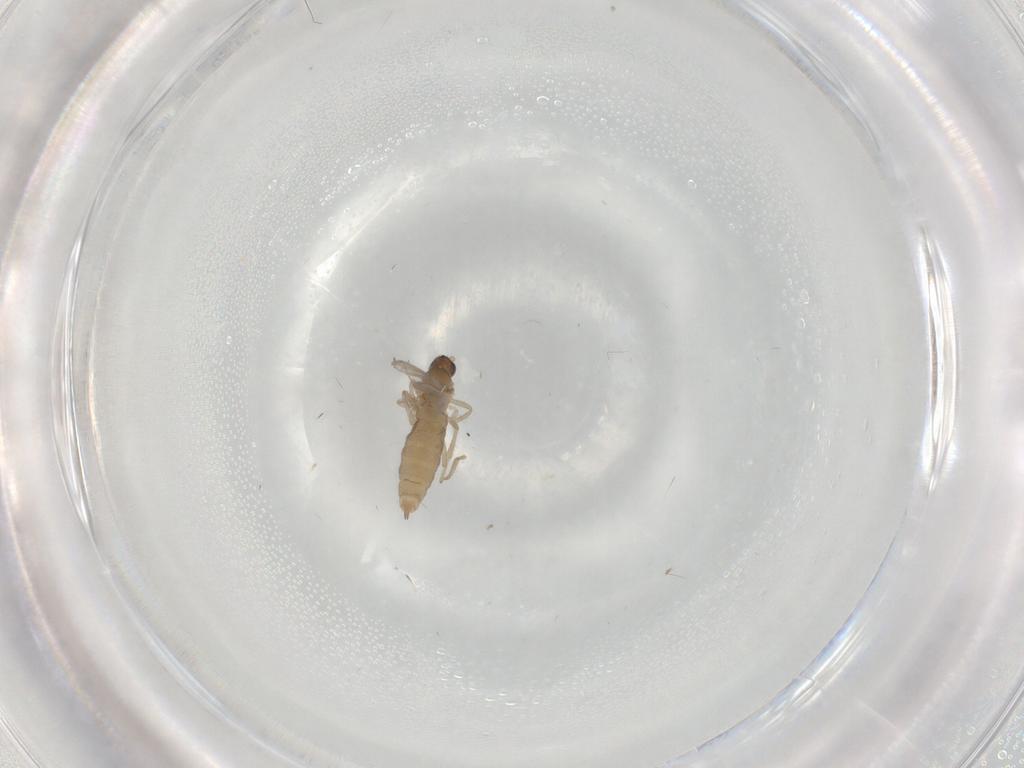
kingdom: Animalia
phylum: Arthropoda
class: Insecta
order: Diptera
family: Cecidomyiidae
